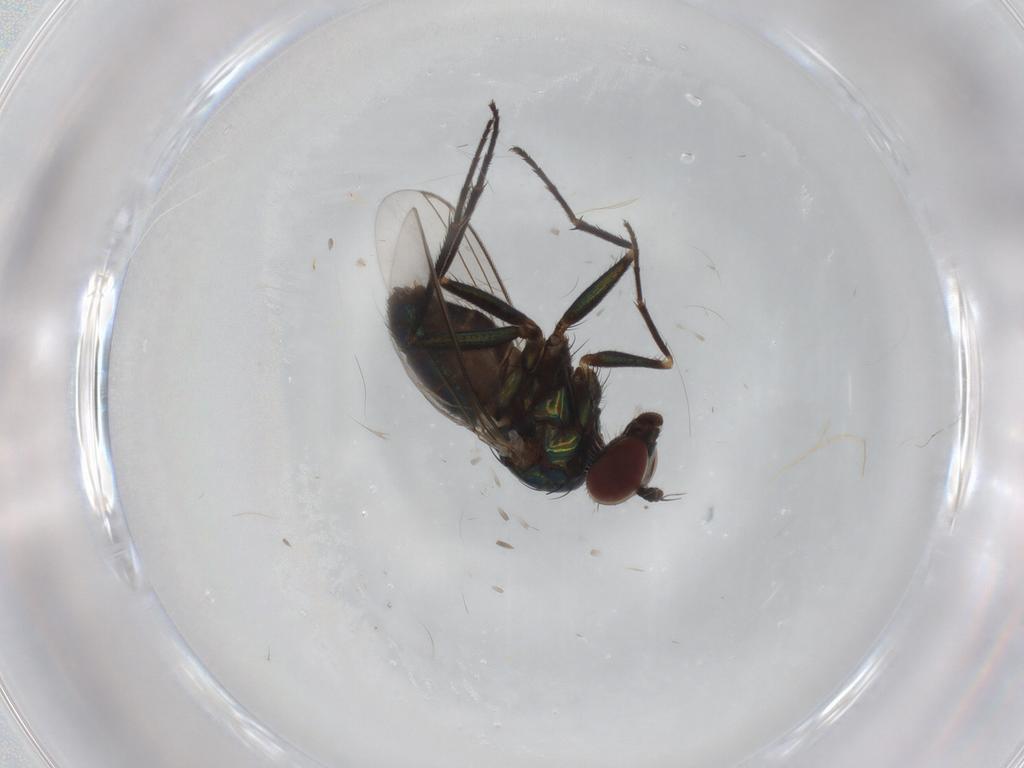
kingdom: Animalia
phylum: Arthropoda
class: Insecta
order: Diptera
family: Dolichopodidae
